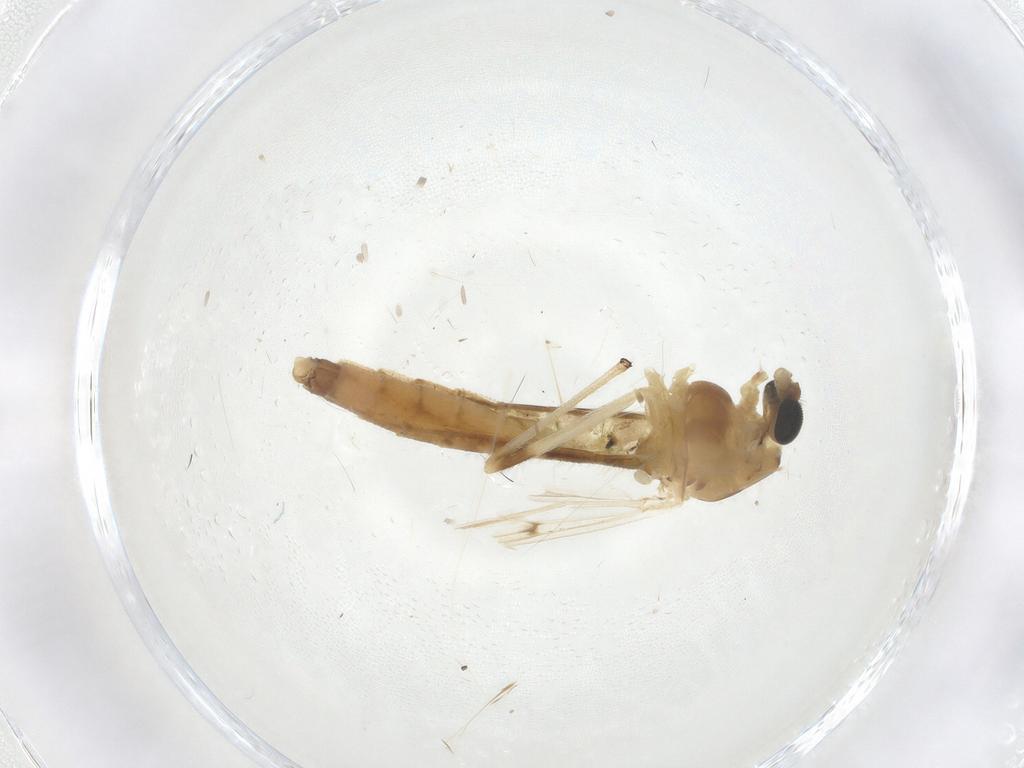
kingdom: Animalia
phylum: Arthropoda
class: Insecta
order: Diptera
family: Chironomidae
